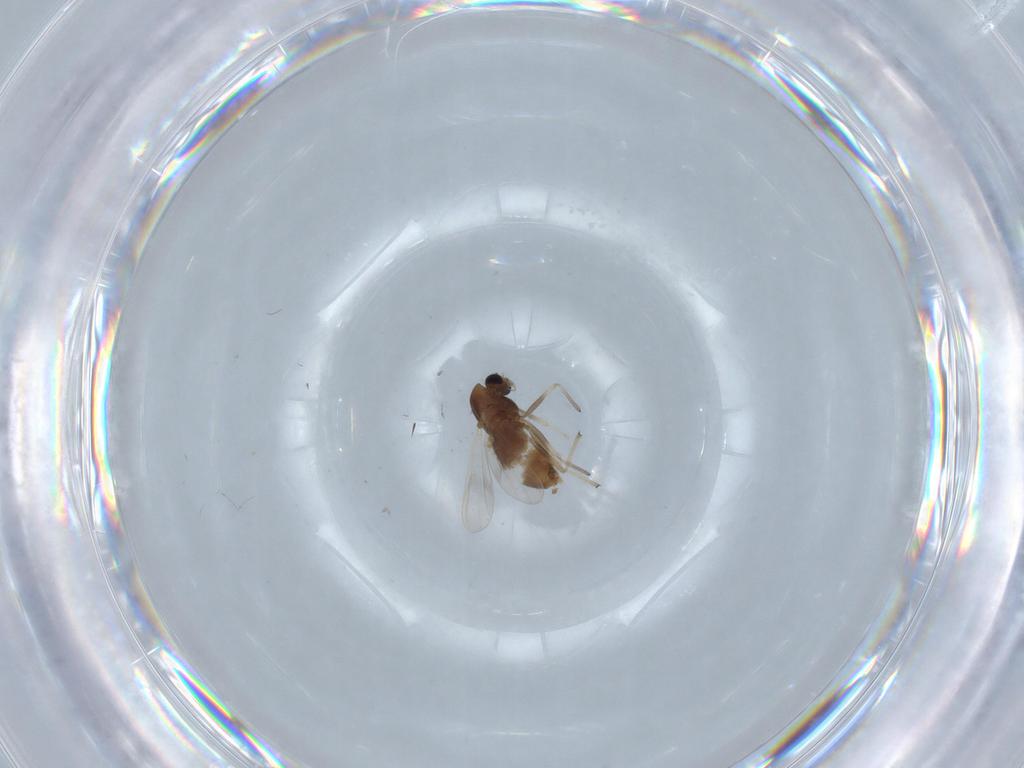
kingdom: Animalia
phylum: Arthropoda
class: Insecta
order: Diptera
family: Chironomidae
